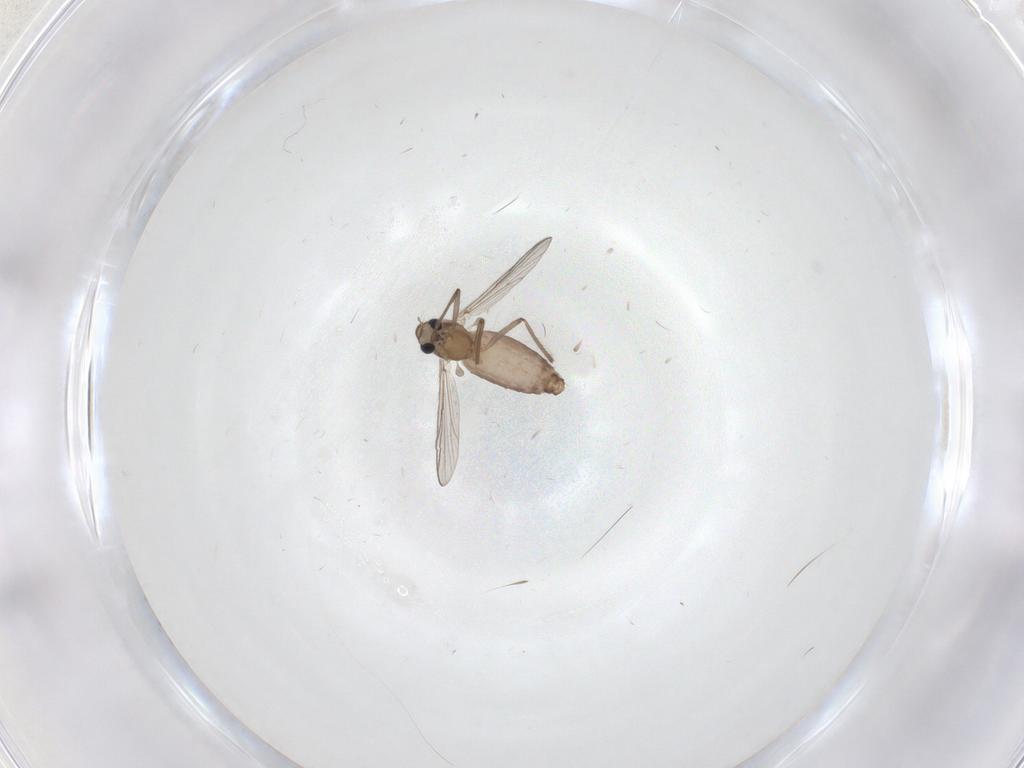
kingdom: Animalia
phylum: Arthropoda
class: Insecta
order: Diptera
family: Chironomidae
